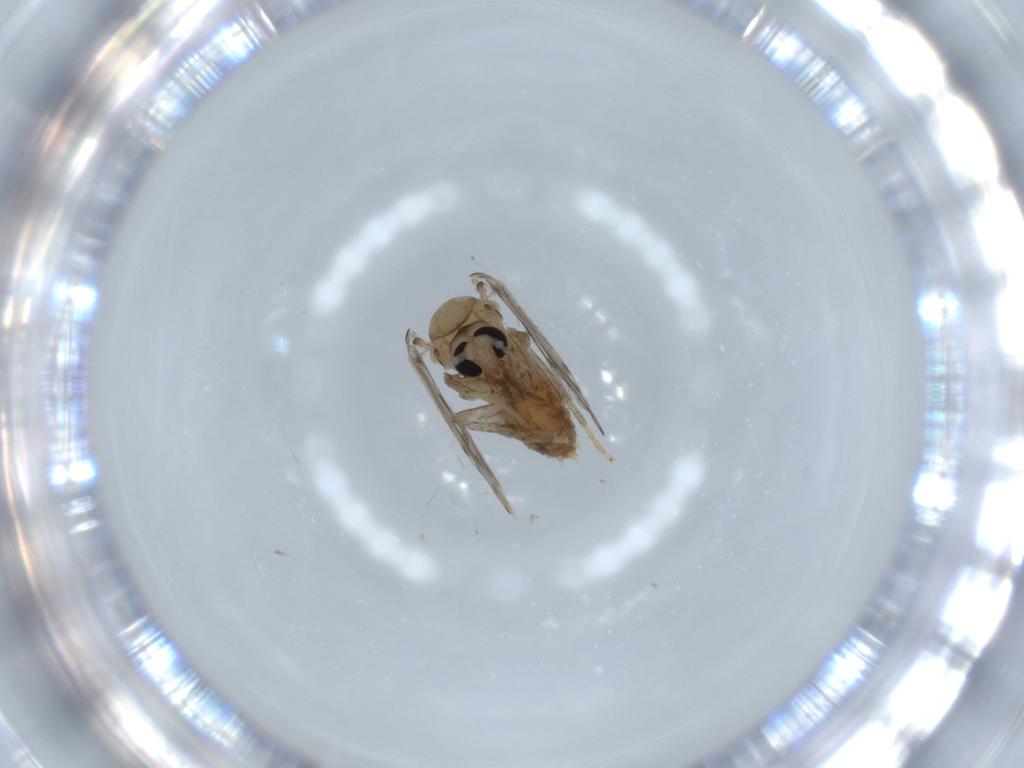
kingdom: Animalia
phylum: Arthropoda
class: Insecta
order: Diptera
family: Psychodidae
